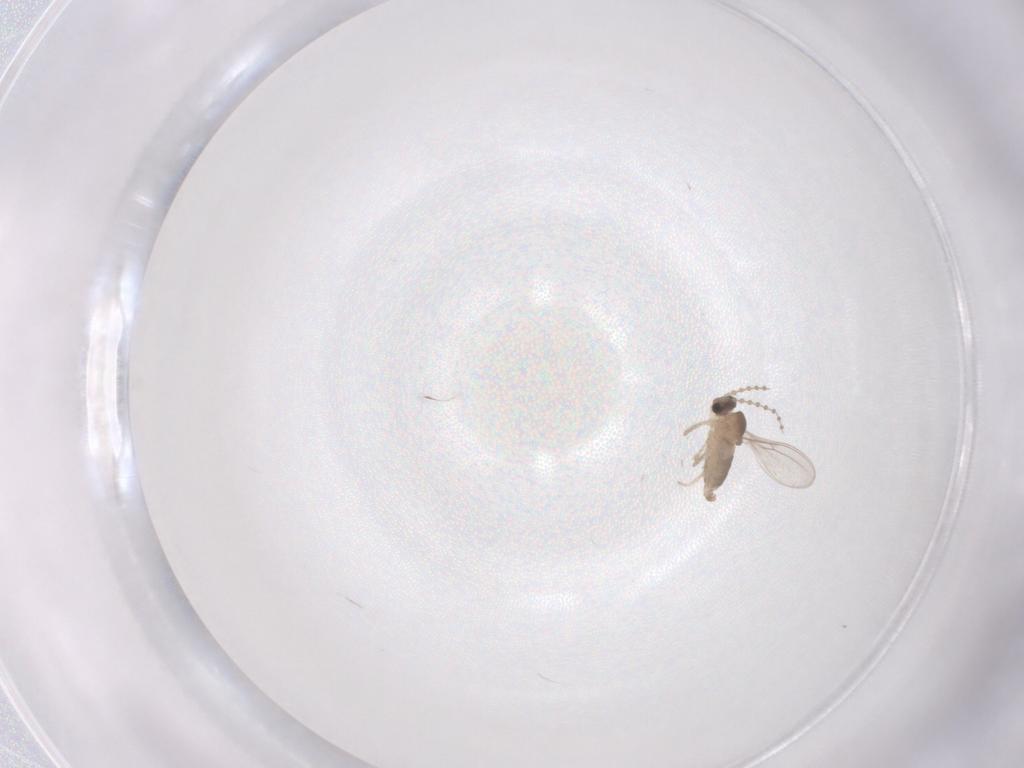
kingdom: Animalia
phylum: Arthropoda
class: Insecta
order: Diptera
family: Cecidomyiidae
